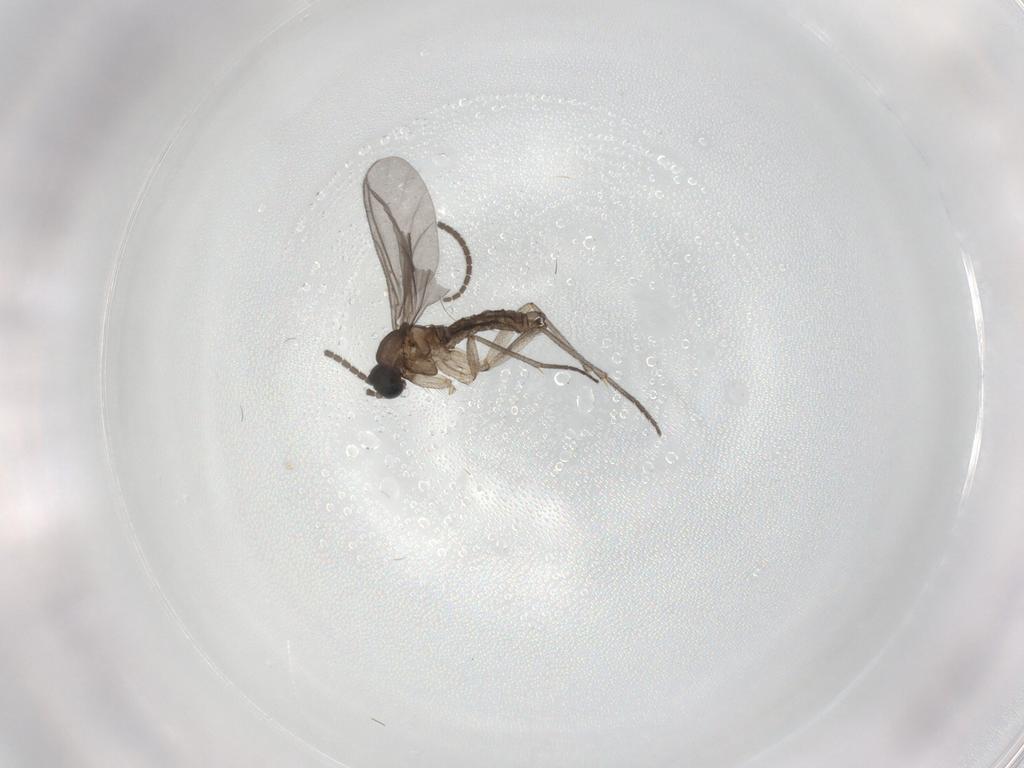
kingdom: Animalia
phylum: Arthropoda
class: Insecta
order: Diptera
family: Sciaridae
